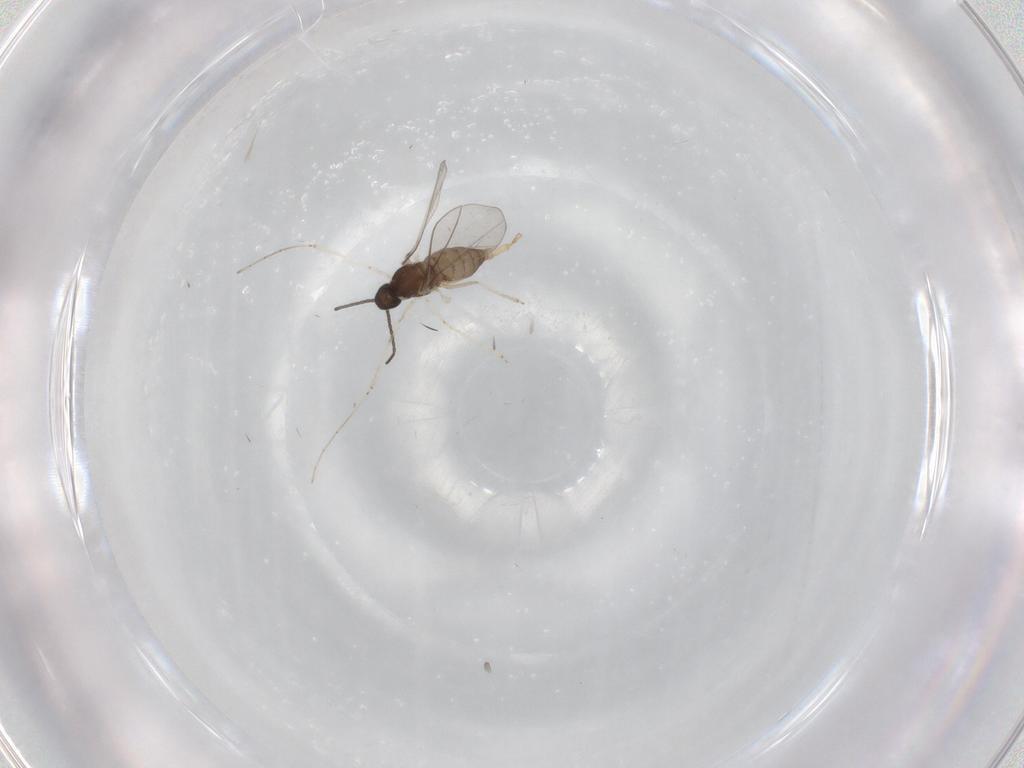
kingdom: Animalia
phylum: Arthropoda
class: Insecta
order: Diptera
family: Cecidomyiidae
